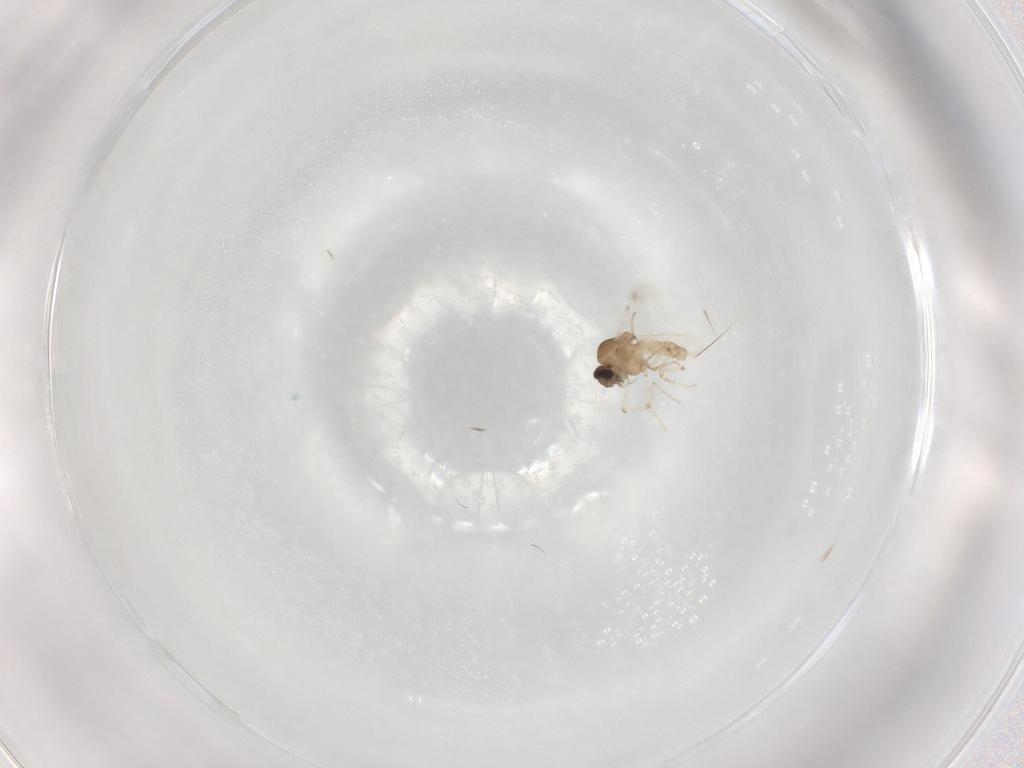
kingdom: Animalia
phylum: Arthropoda
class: Insecta
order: Diptera
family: Ceratopogonidae
